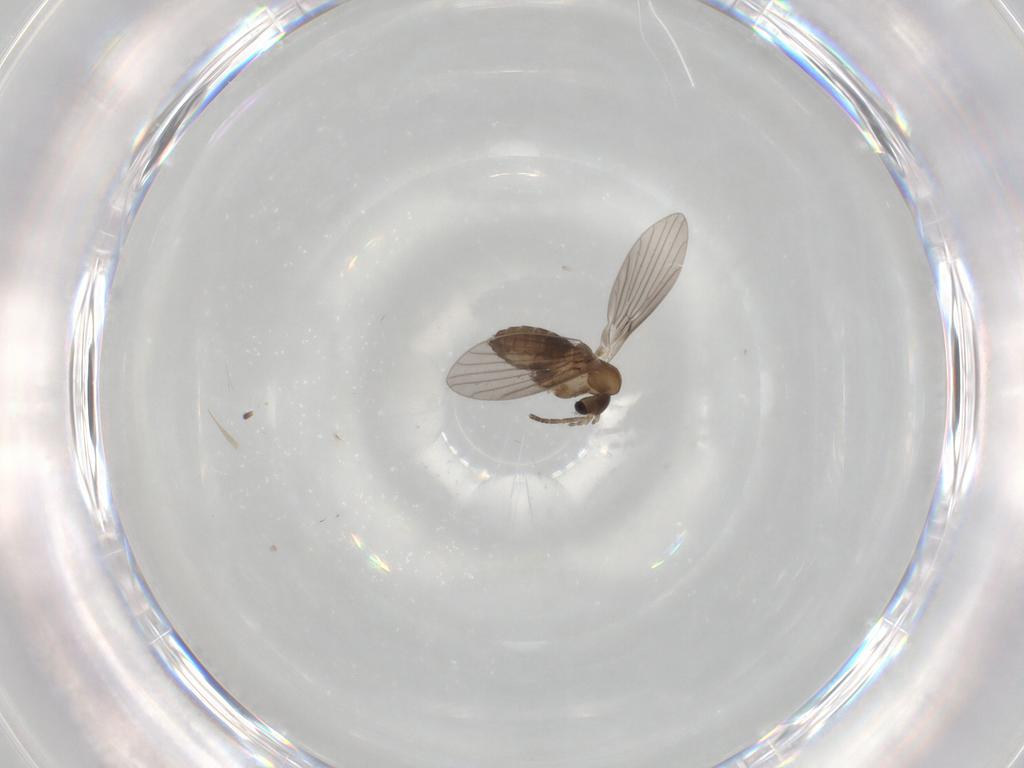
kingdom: Animalia
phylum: Arthropoda
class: Insecta
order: Diptera
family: Psychodidae
